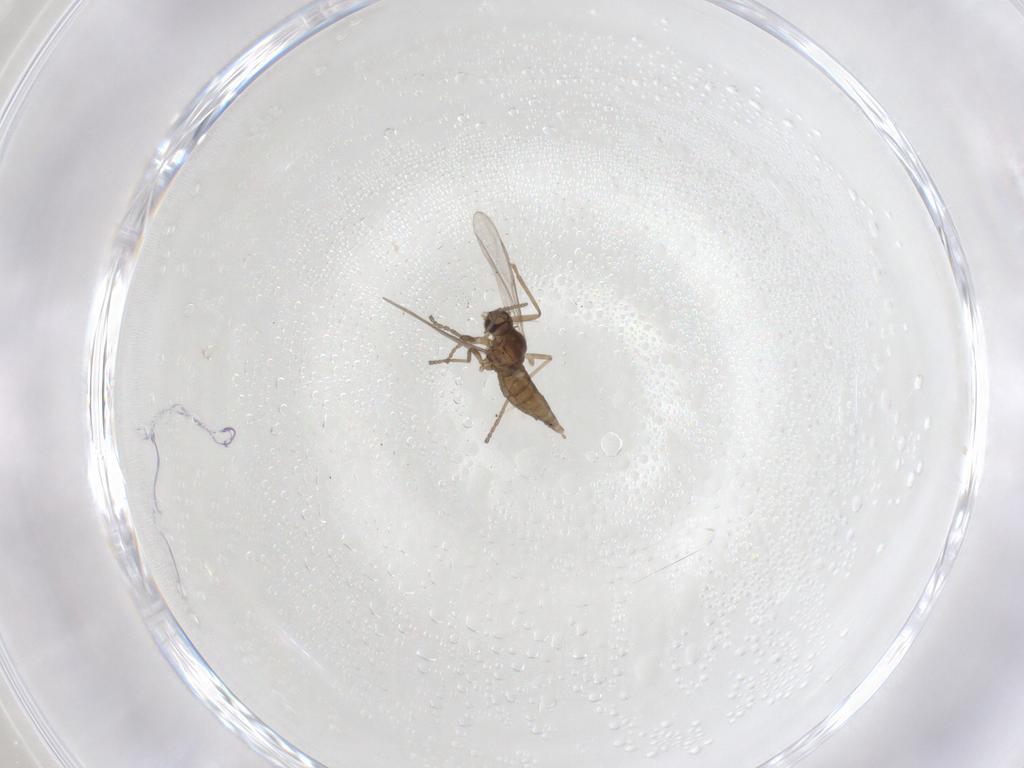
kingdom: Animalia
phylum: Arthropoda
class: Insecta
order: Diptera
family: Cecidomyiidae
